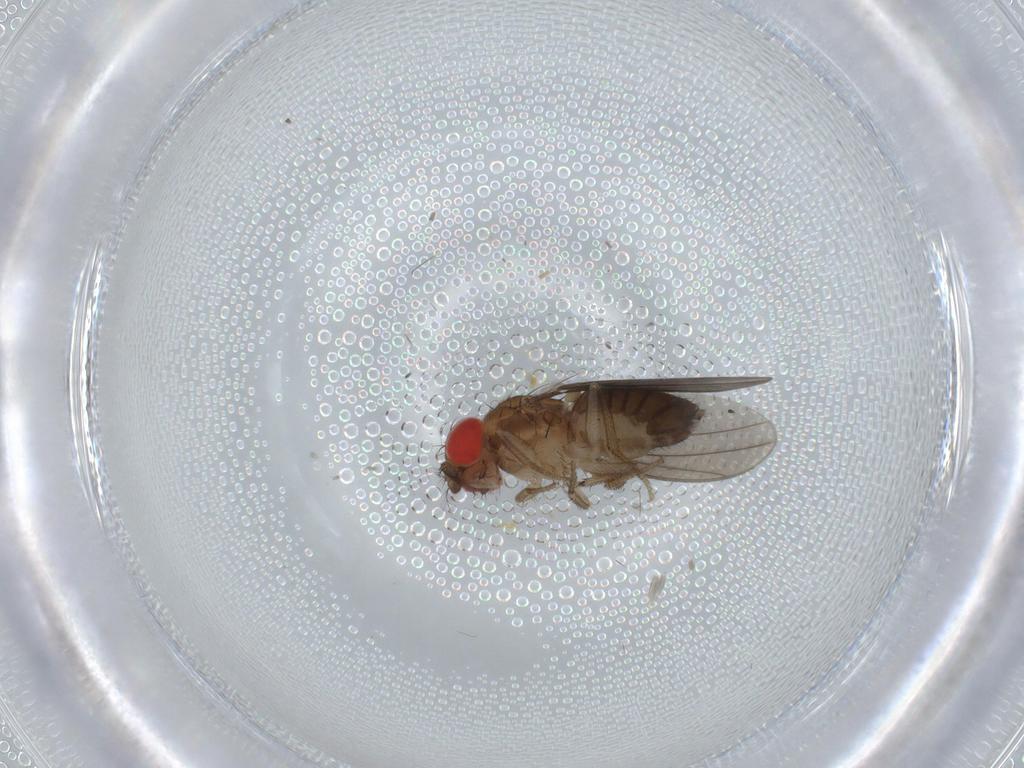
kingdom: Animalia
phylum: Arthropoda
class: Insecta
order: Diptera
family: Drosophilidae
